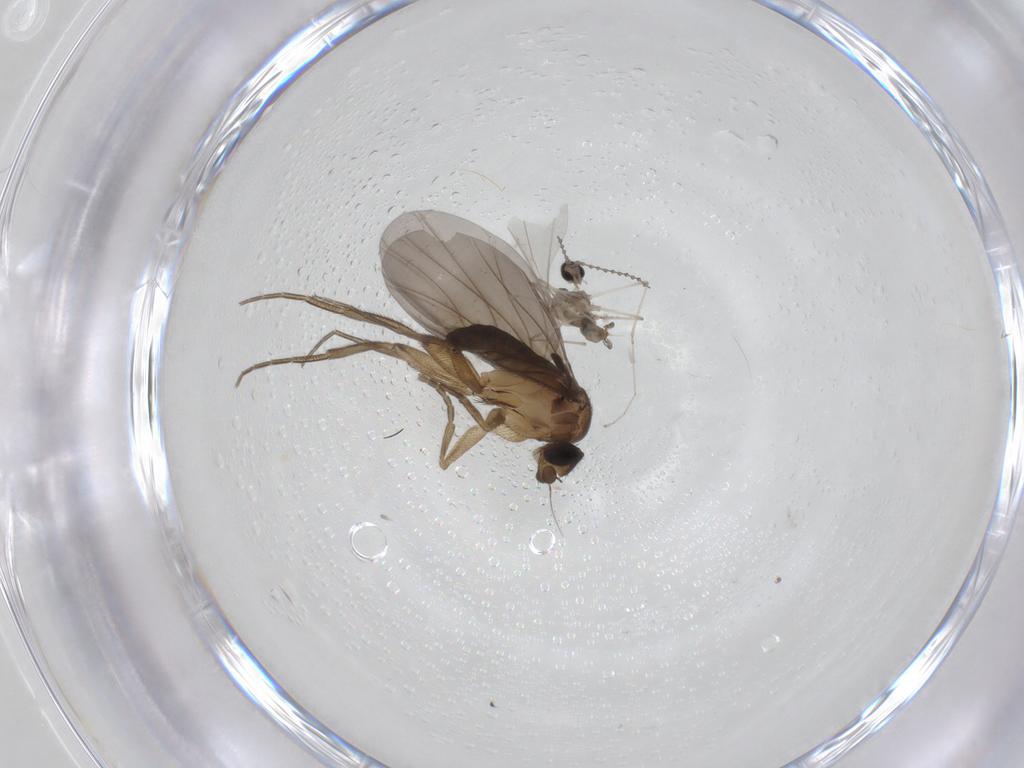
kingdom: Animalia
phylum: Arthropoda
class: Insecta
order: Diptera
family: Cecidomyiidae
